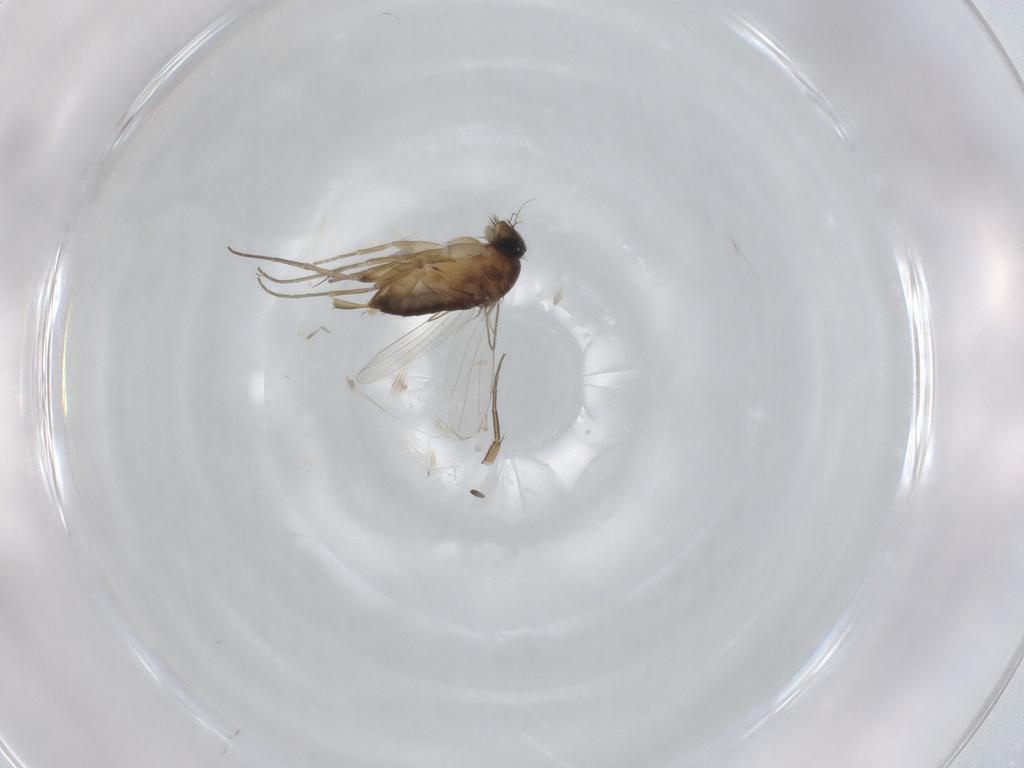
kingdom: Animalia
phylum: Arthropoda
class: Insecta
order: Diptera
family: Phoridae
